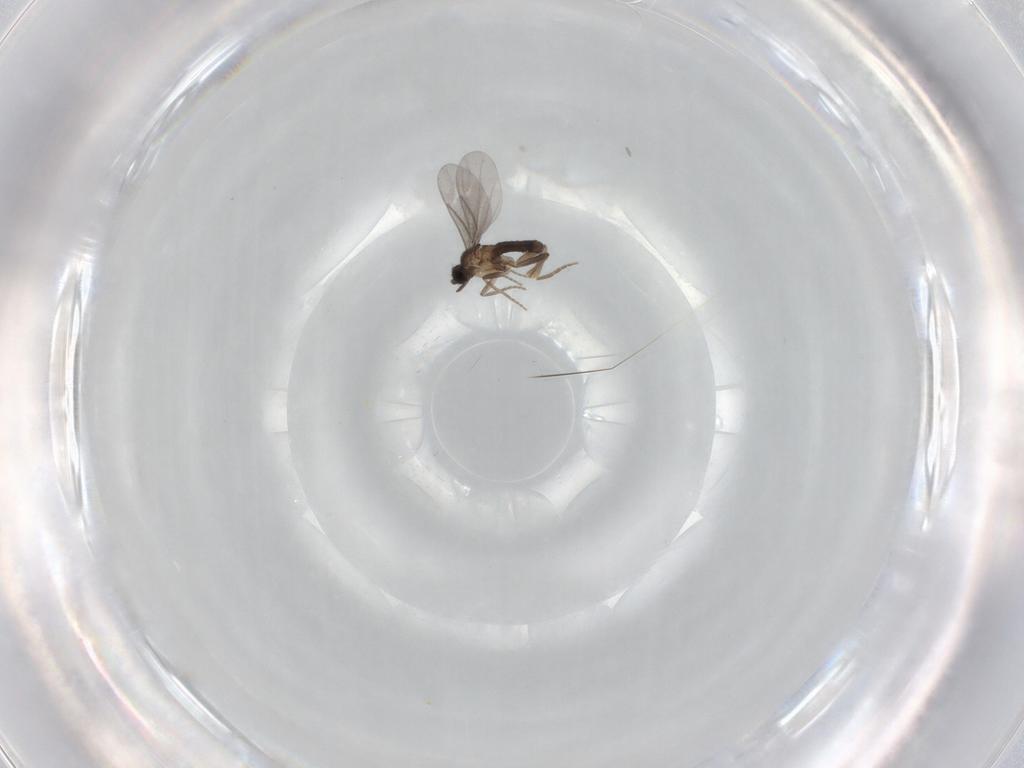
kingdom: Animalia
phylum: Arthropoda
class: Insecta
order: Diptera
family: Chironomidae
